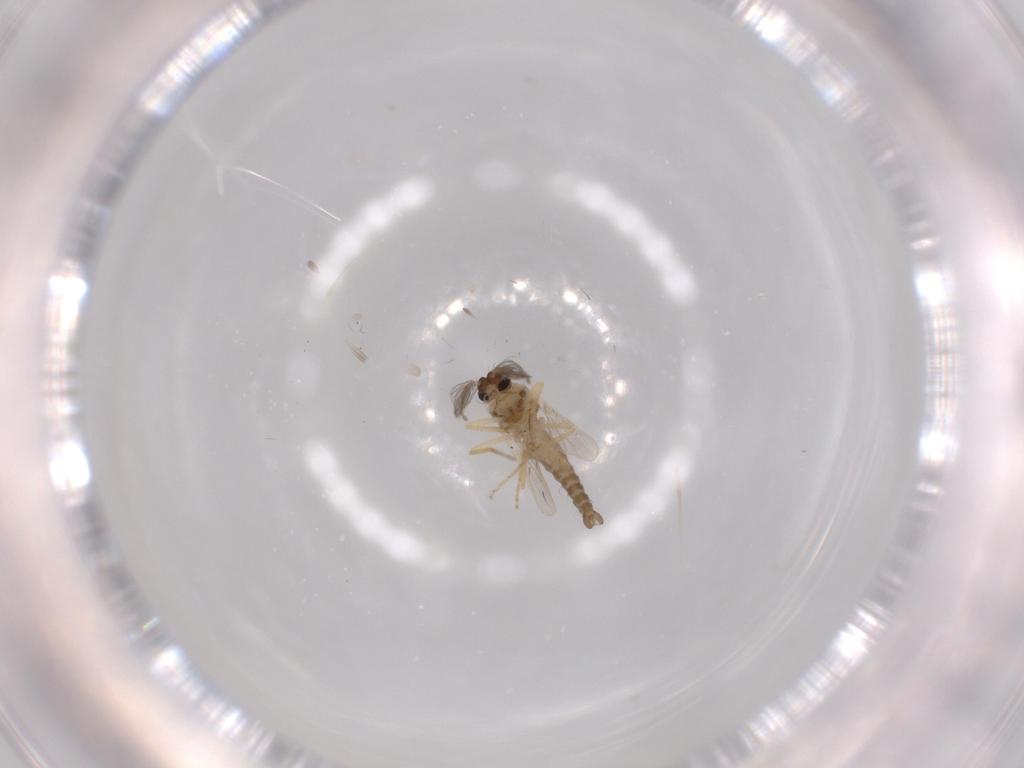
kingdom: Animalia
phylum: Arthropoda
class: Insecta
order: Diptera
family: Ceratopogonidae
